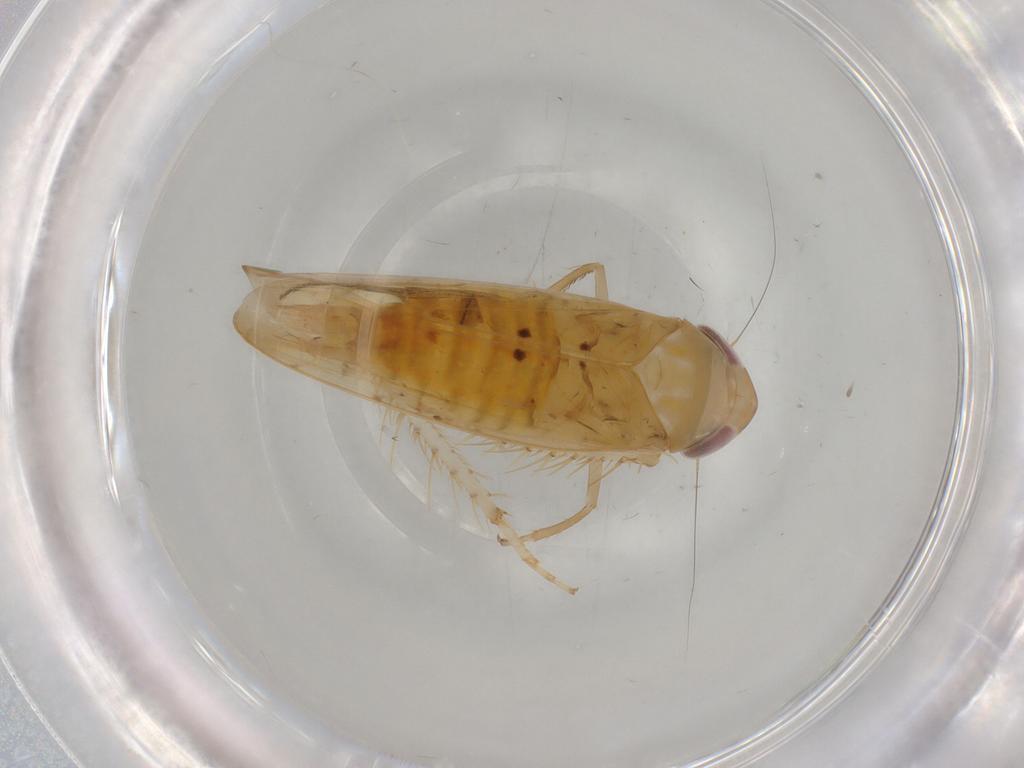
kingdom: Animalia
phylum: Arthropoda
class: Insecta
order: Hemiptera
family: Cicadellidae
